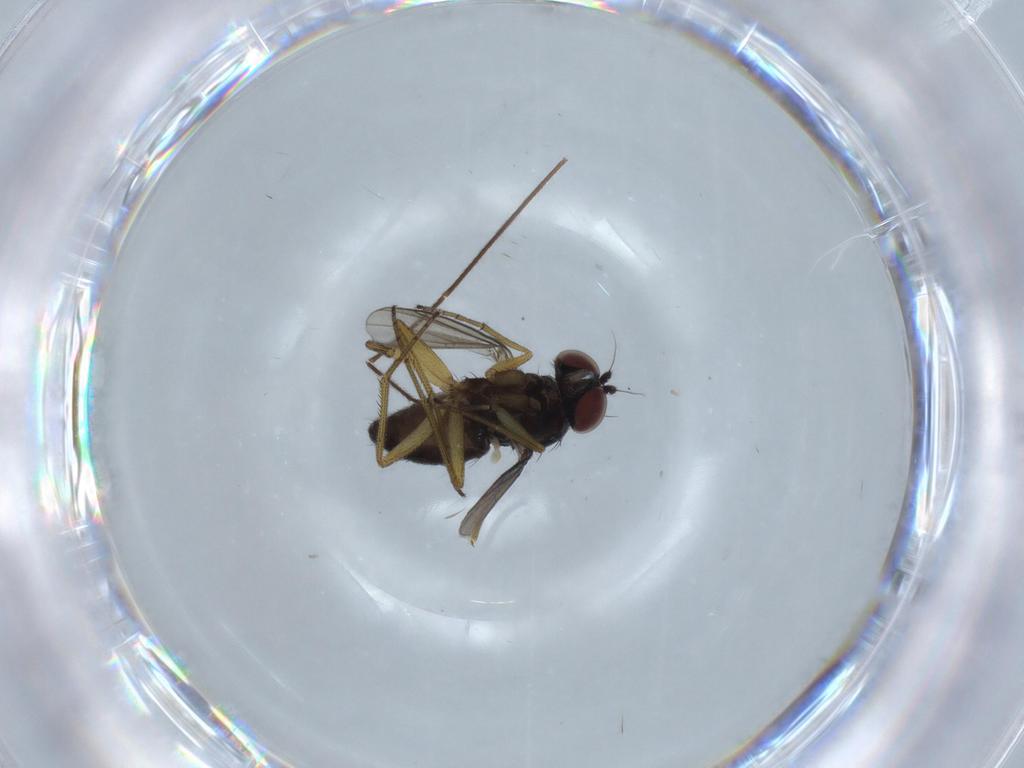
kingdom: Animalia
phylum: Arthropoda
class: Insecta
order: Diptera
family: Dolichopodidae
